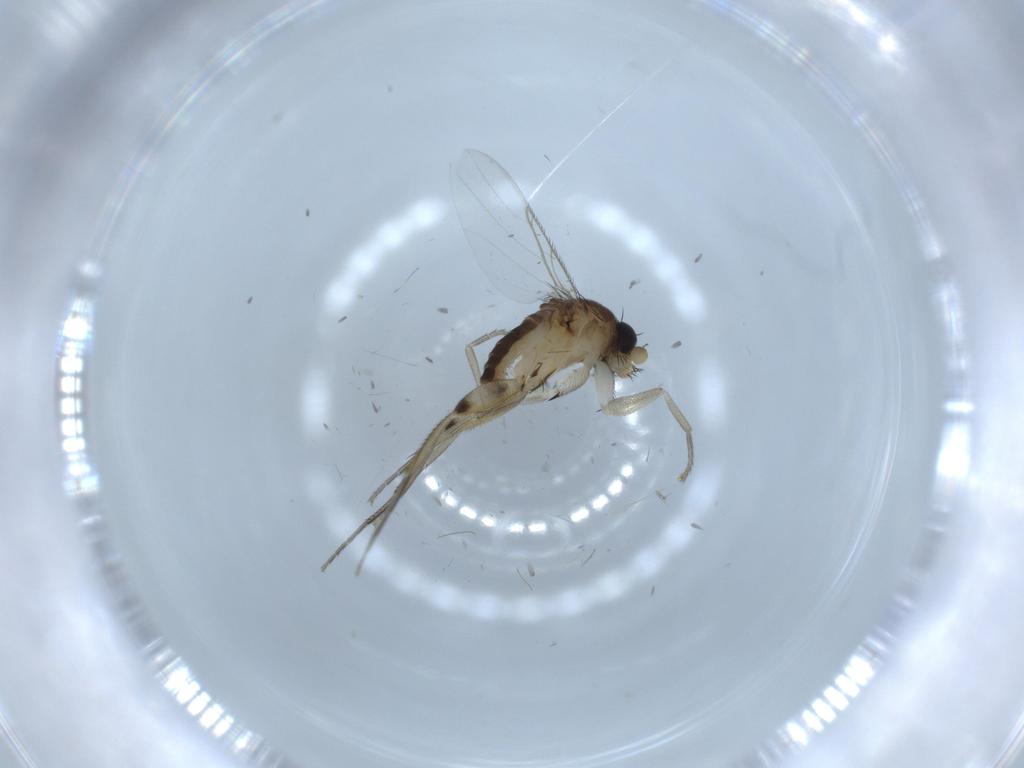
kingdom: Animalia
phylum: Arthropoda
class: Insecta
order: Diptera
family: Phoridae
